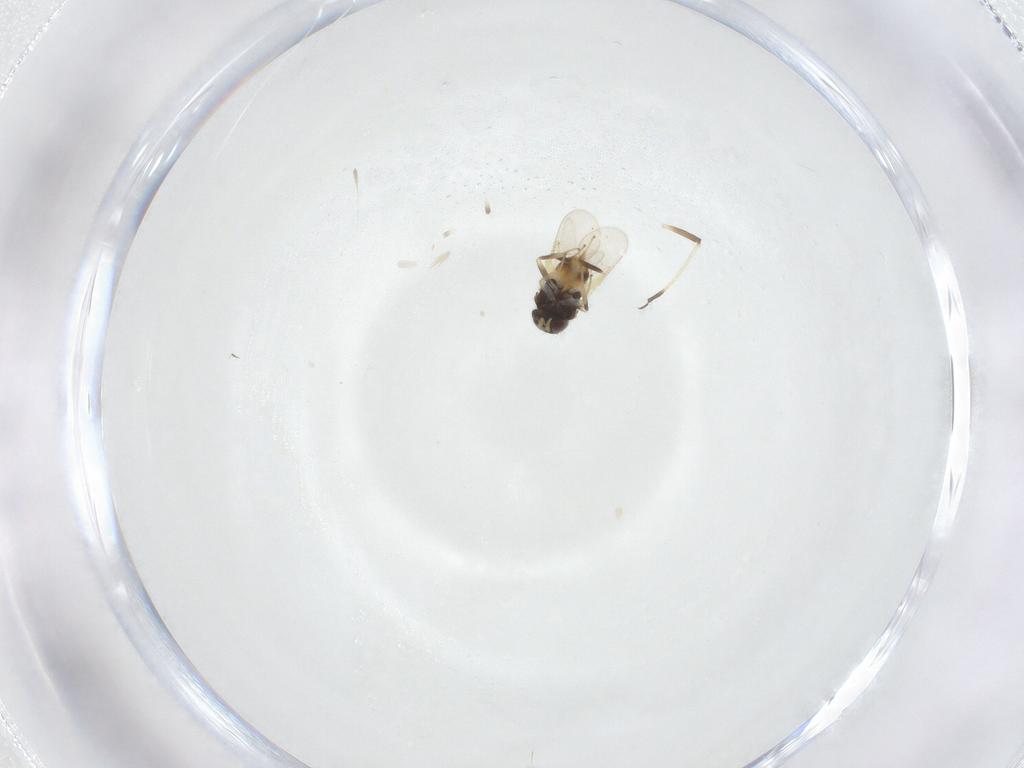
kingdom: Animalia
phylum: Arthropoda
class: Insecta
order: Hymenoptera
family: Aphelinidae
